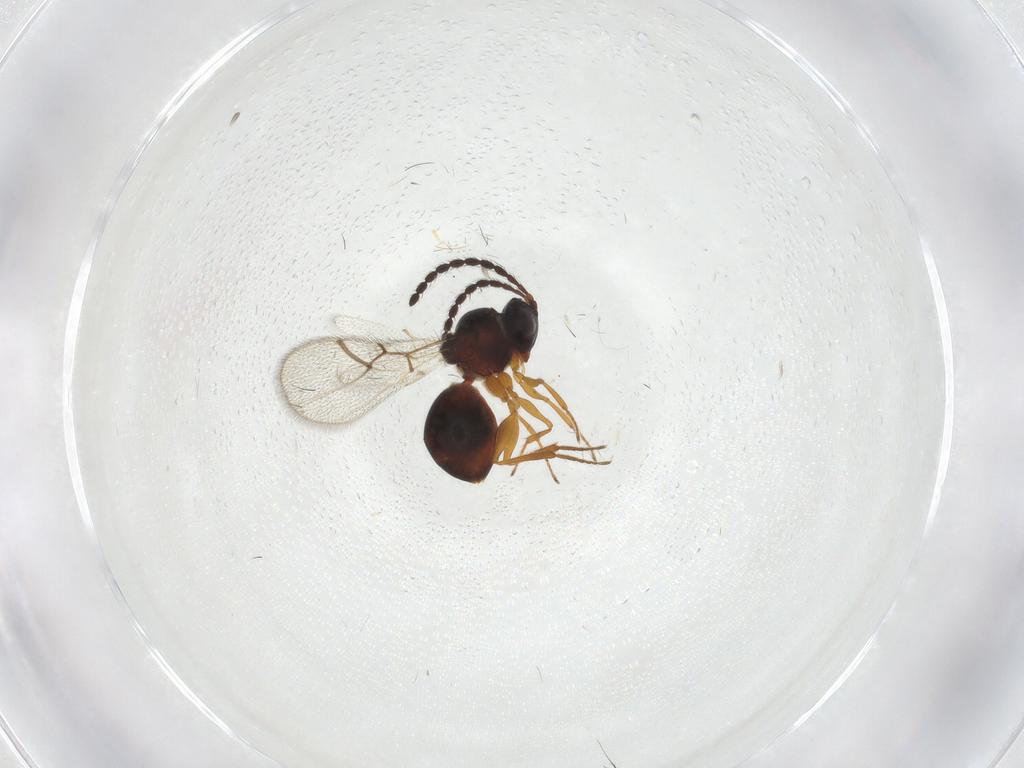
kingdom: Animalia
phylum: Arthropoda
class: Insecta
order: Hymenoptera
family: Figitidae
